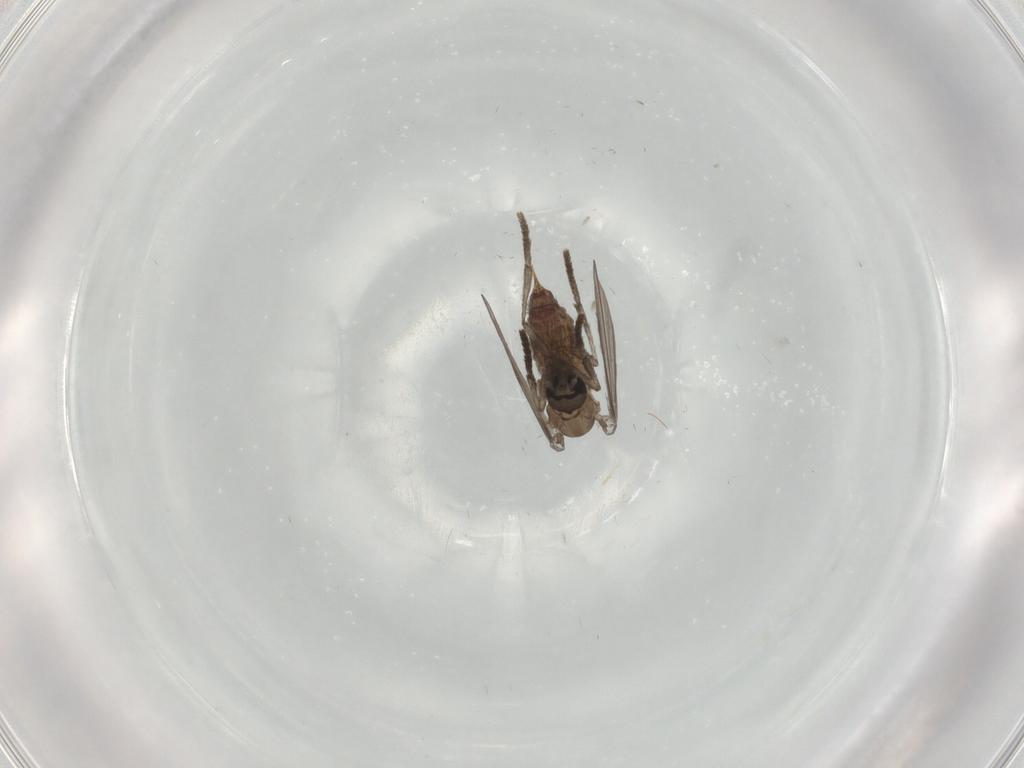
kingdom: Animalia
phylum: Arthropoda
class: Insecta
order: Diptera
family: Psychodidae
